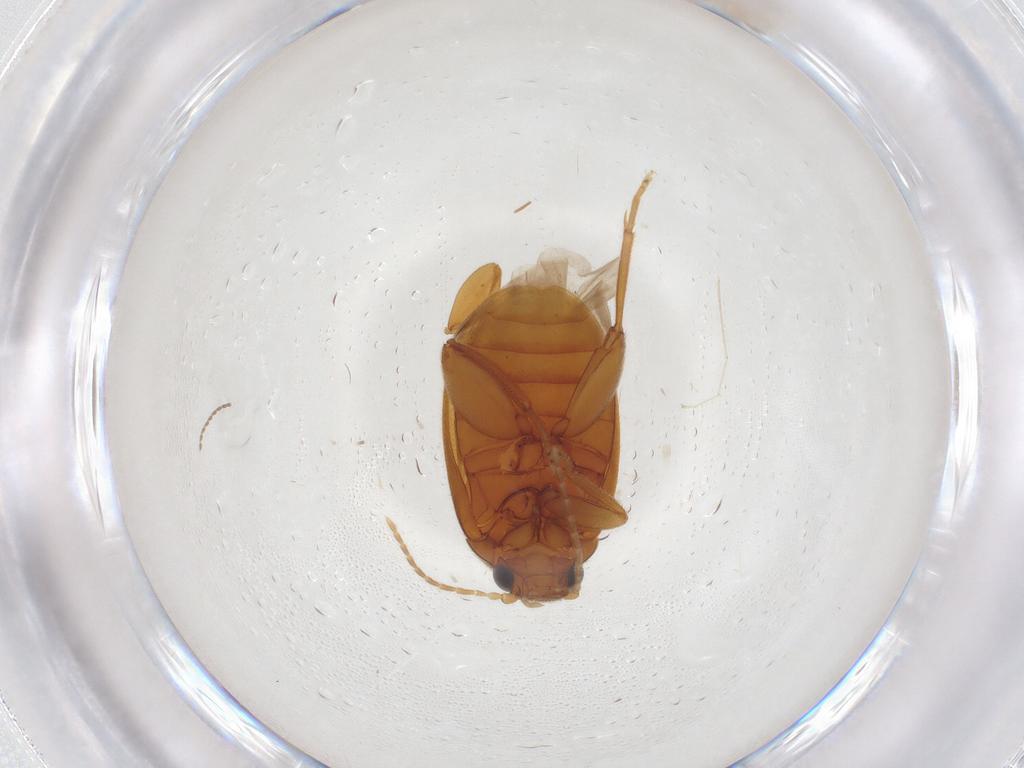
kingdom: Animalia
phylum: Arthropoda
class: Insecta
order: Coleoptera
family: Scirtidae
